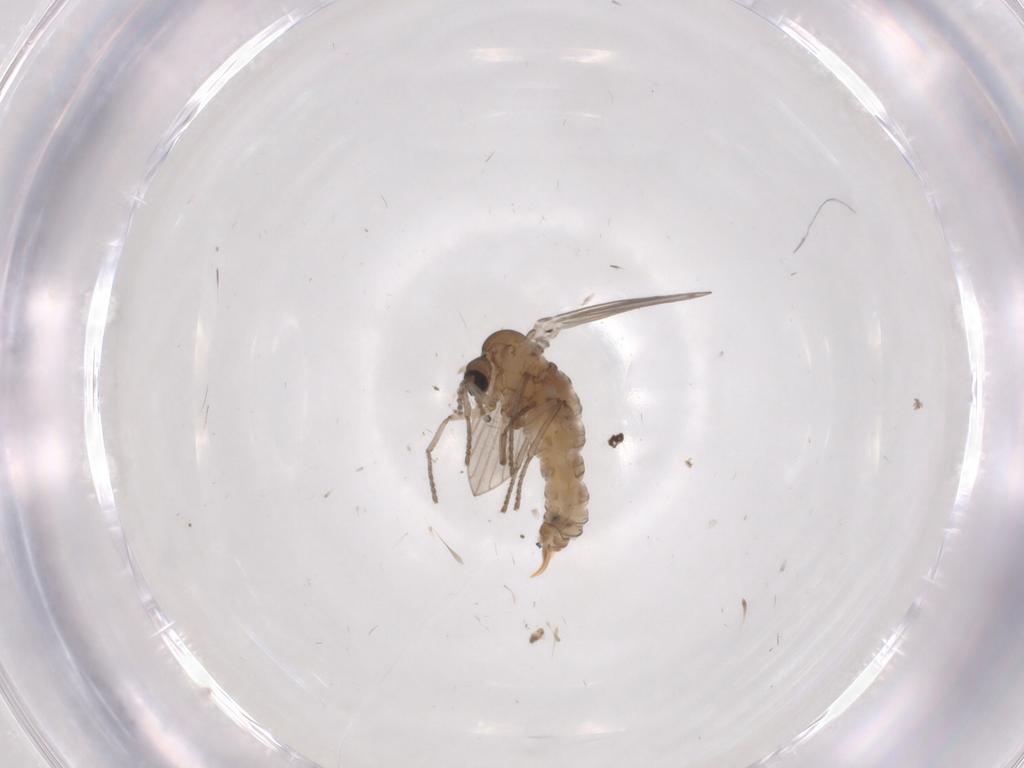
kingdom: Animalia
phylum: Arthropoda
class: Insecta
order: Diptera
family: Psychodidae
